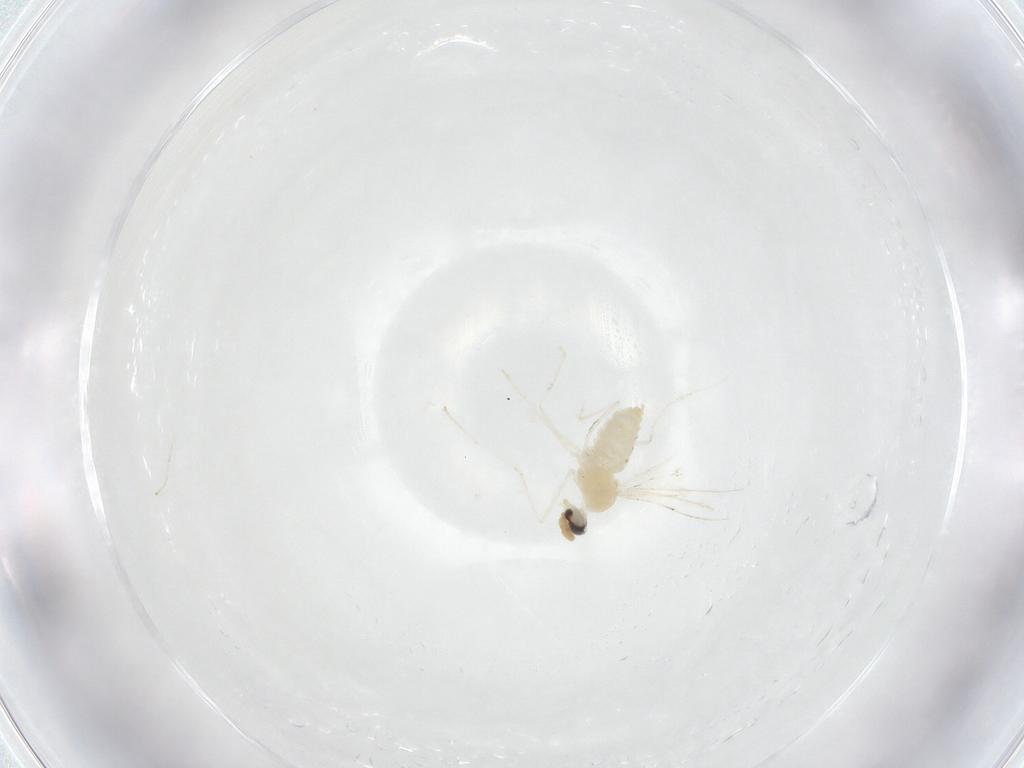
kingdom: Animalia
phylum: Arthropoda
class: Insecta
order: Diptera
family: Cecidomyiidae
